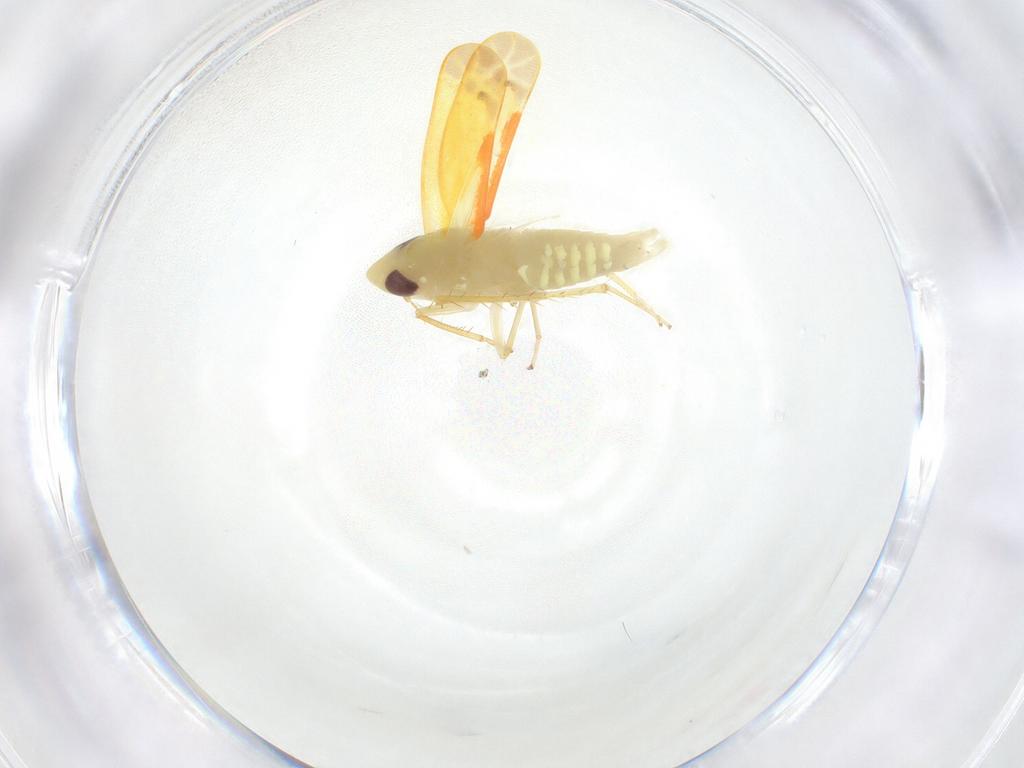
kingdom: Animalia
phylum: Arthropoda
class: Insecta
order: Hemiptera
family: Cicadellidae
